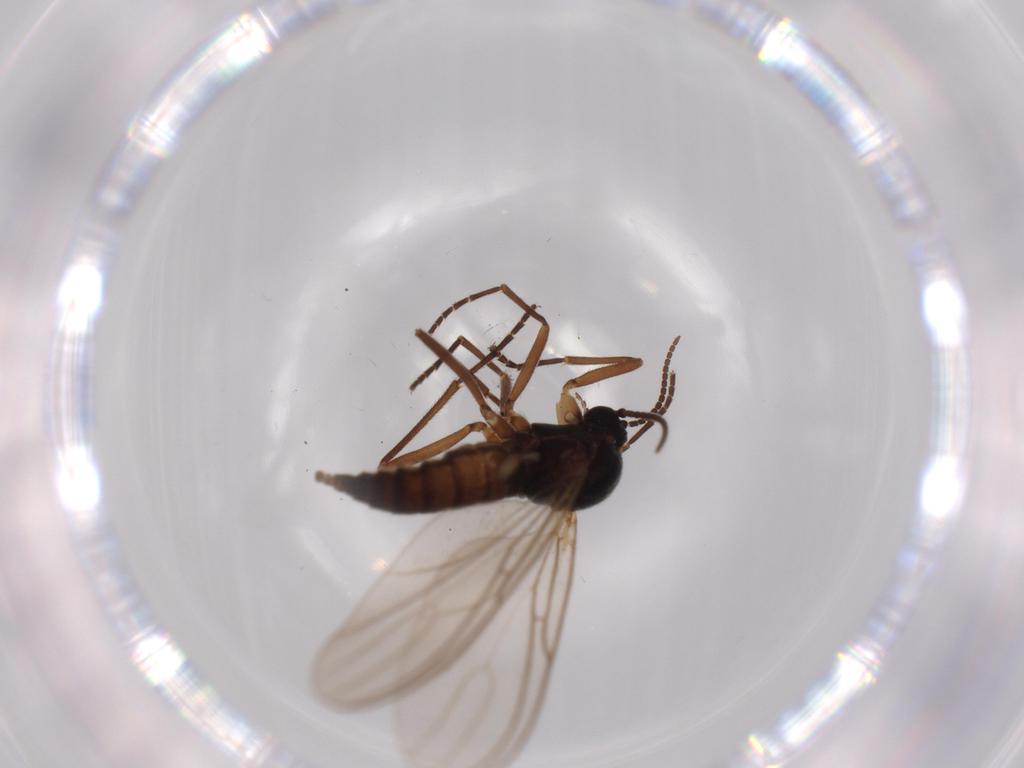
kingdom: Animalia
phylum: Arthropoda
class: Insecta
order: Diptera
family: Sciaridae
